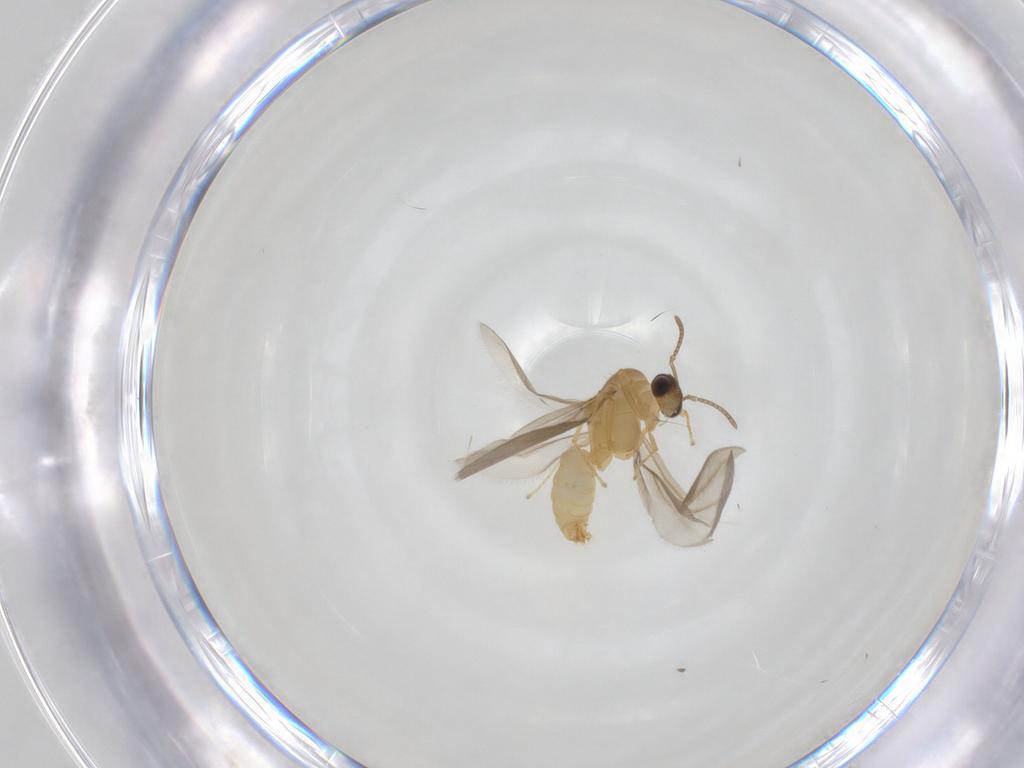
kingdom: Animalia
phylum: Arthropoda
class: Insecta
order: Hymenoptera
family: Formicidae
